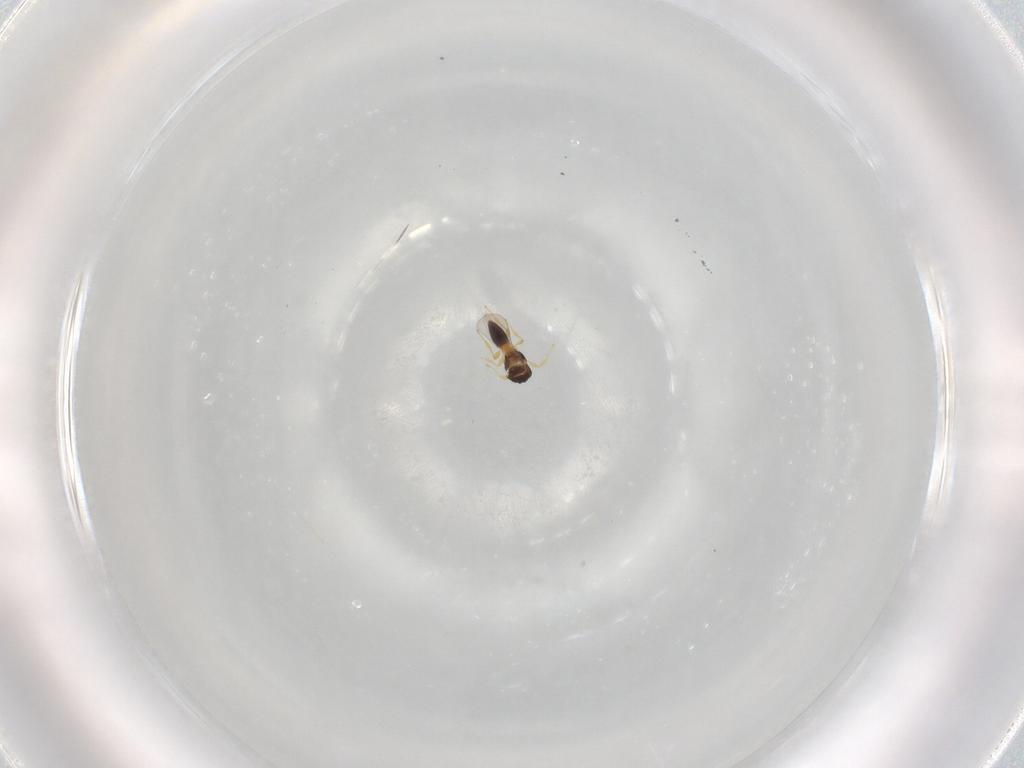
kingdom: Animalia
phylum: Arthropoda
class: Insecta
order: Hymenoptera
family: Platygastridae
